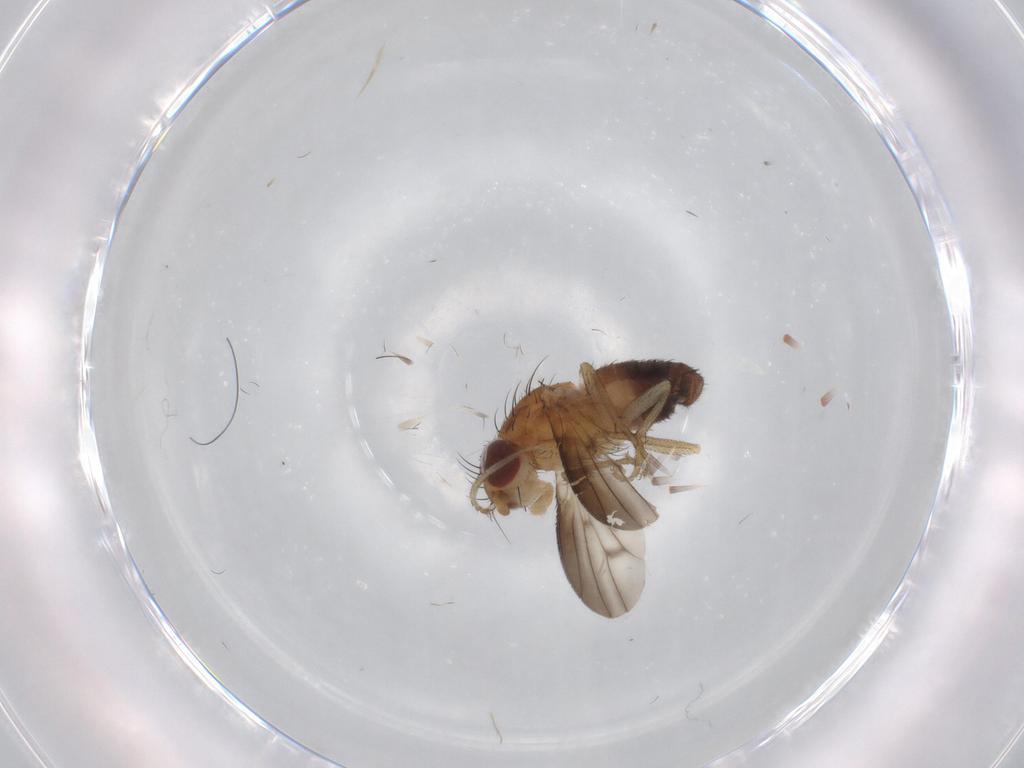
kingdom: Animalia
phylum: Arthropoda
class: Insecta
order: Diptera
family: Heleomyzidae
